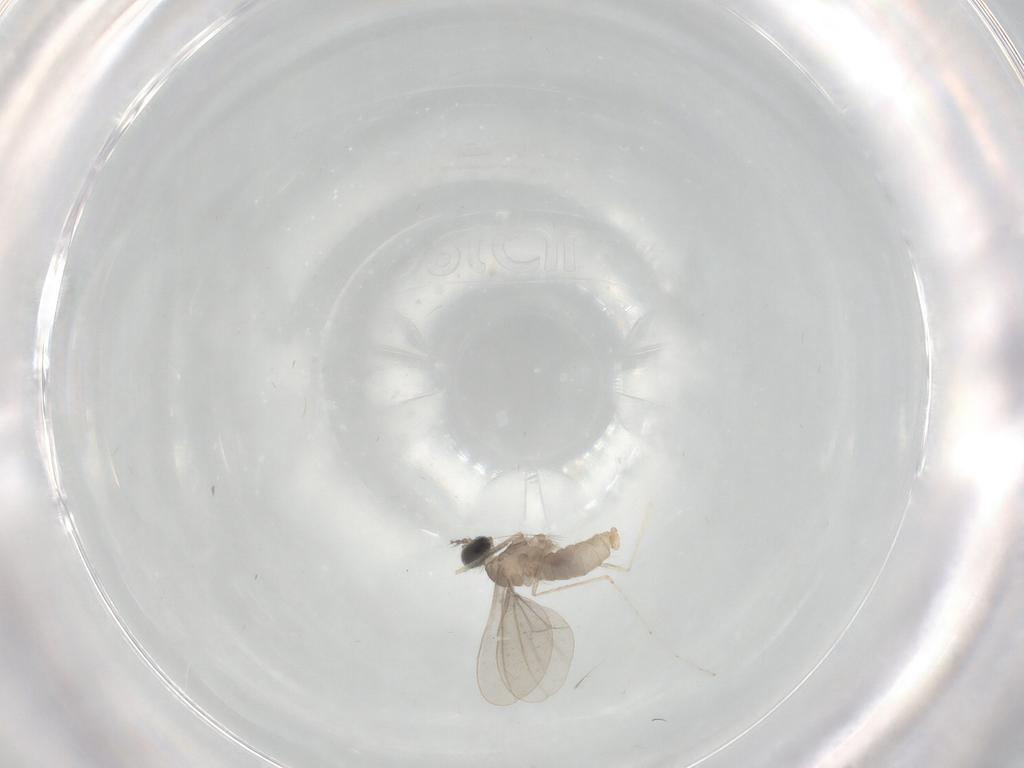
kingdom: Animalia
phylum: Arthropoda
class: Insecta
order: Diptera
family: Cecidomyiidae
